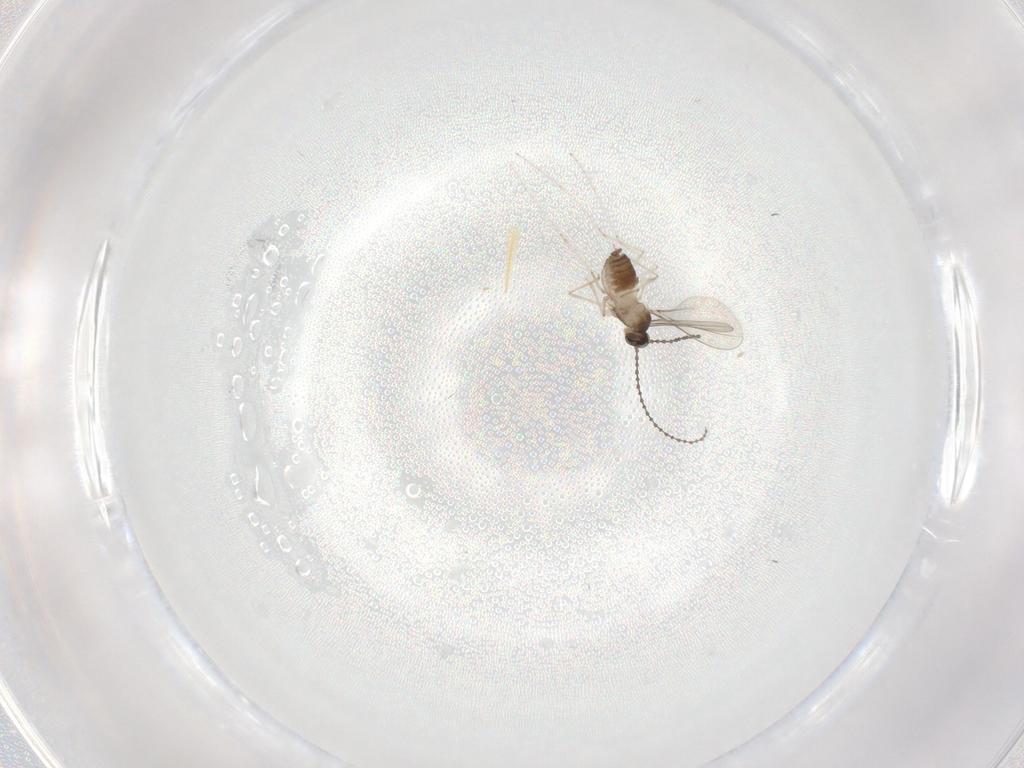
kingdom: Animalia
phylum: Arthropoda
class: Insecta
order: Diptera
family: Cecidomyiidae
